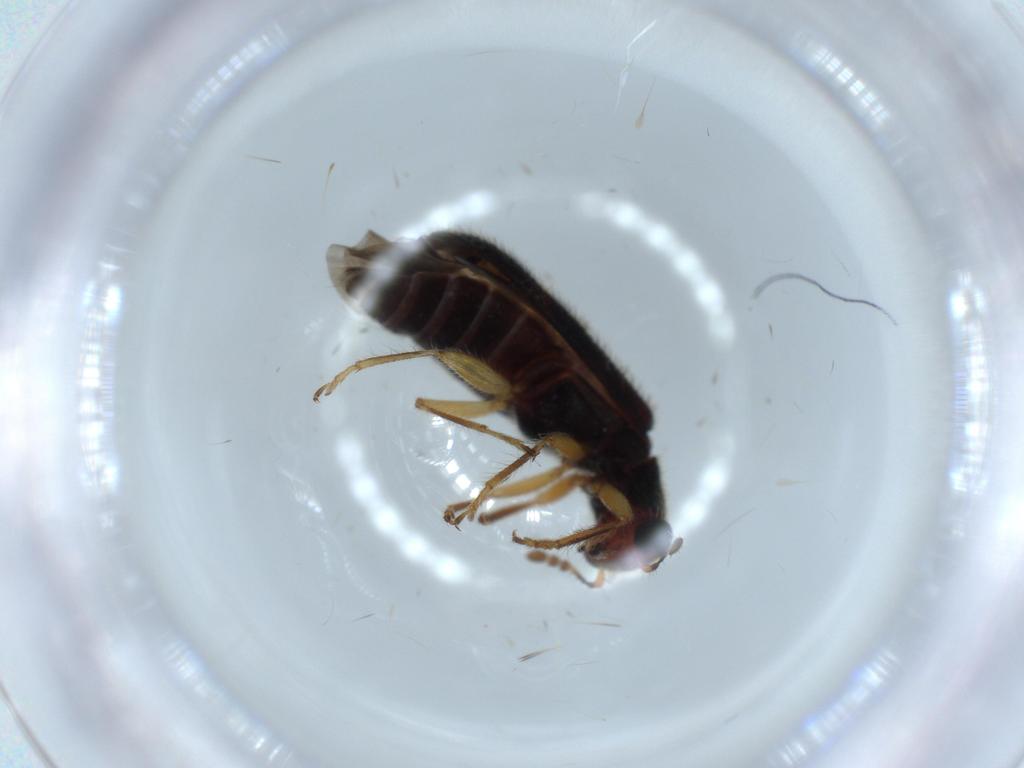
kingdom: Animalia
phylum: Arthropoda
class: Insecta
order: Coleoptera
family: Cleridae
